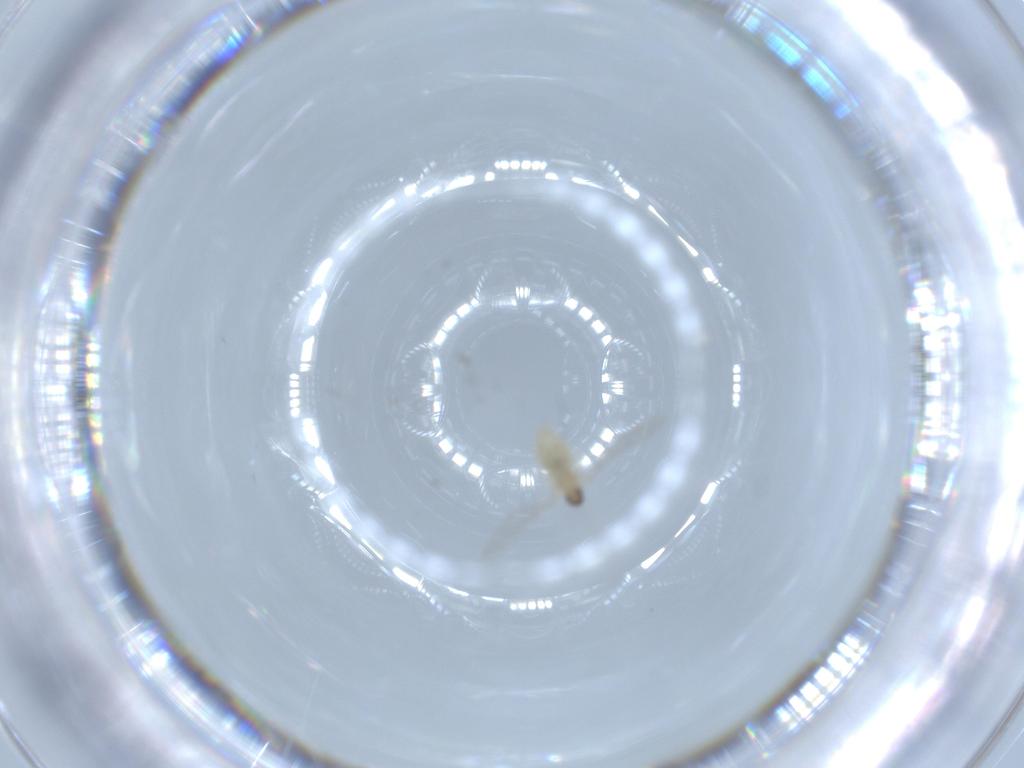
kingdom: Animalia
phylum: Arthropoda
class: Insecta
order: Diptera
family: Cecidomyiidae
